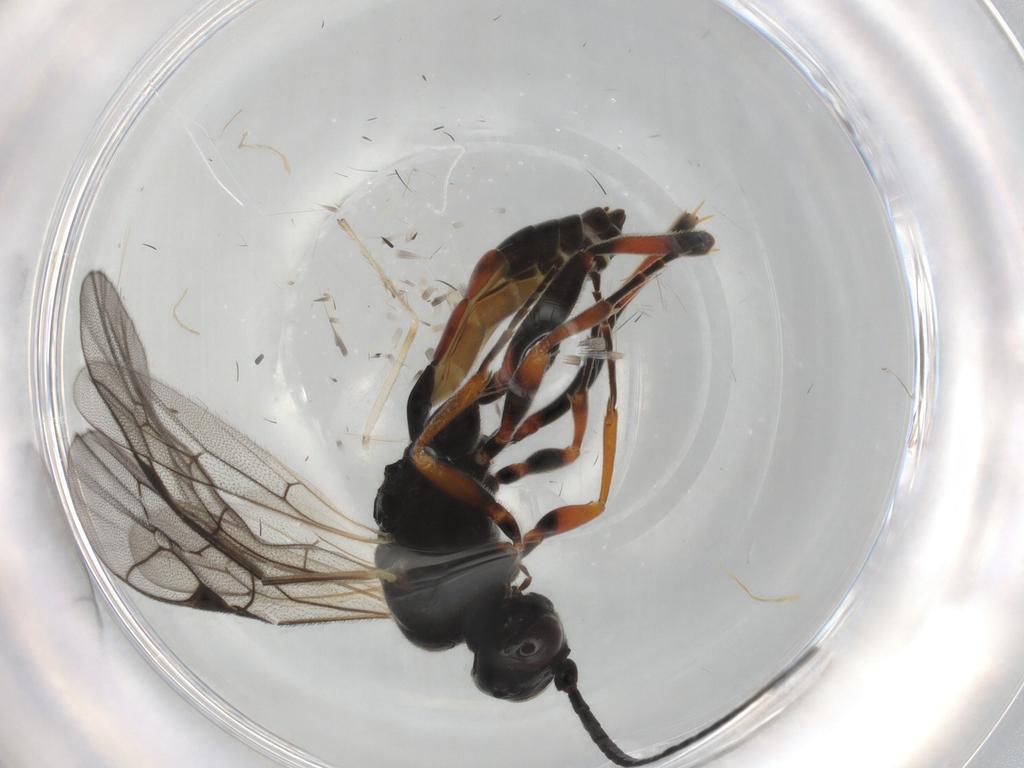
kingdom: Animalia
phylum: Arthropoda
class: Insecta
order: Hymenoptera
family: Ichneumonidae
